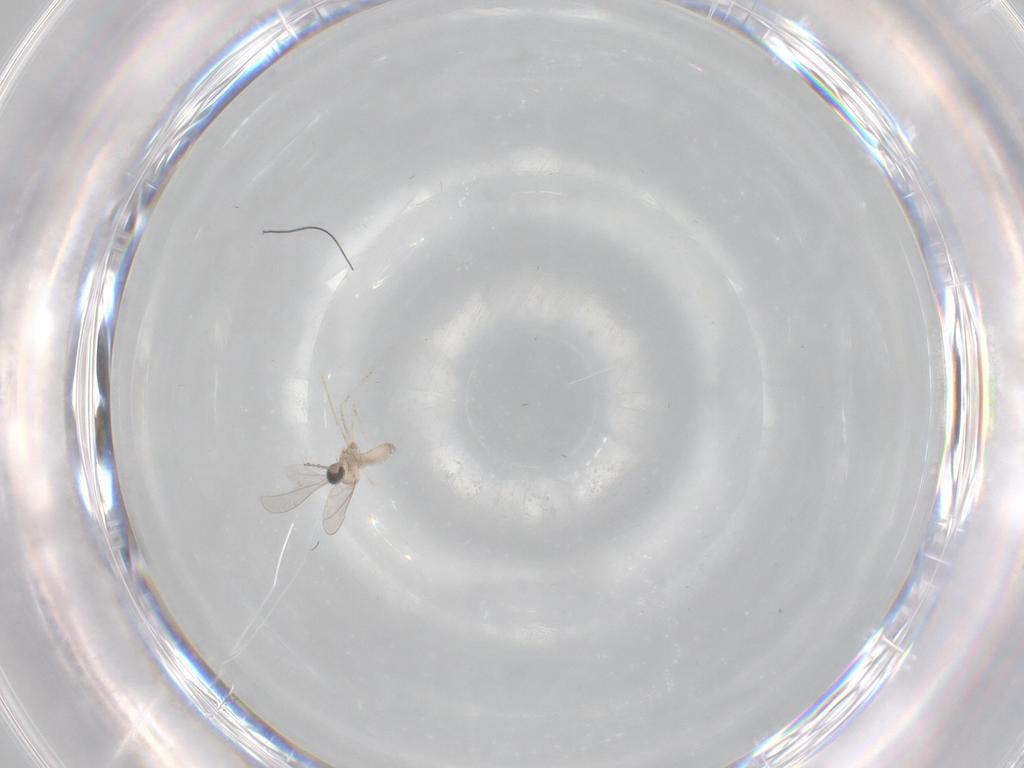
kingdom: Animalia
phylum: Arthropoda
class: Insecta
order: Diptera
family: Cecidomyiidae
